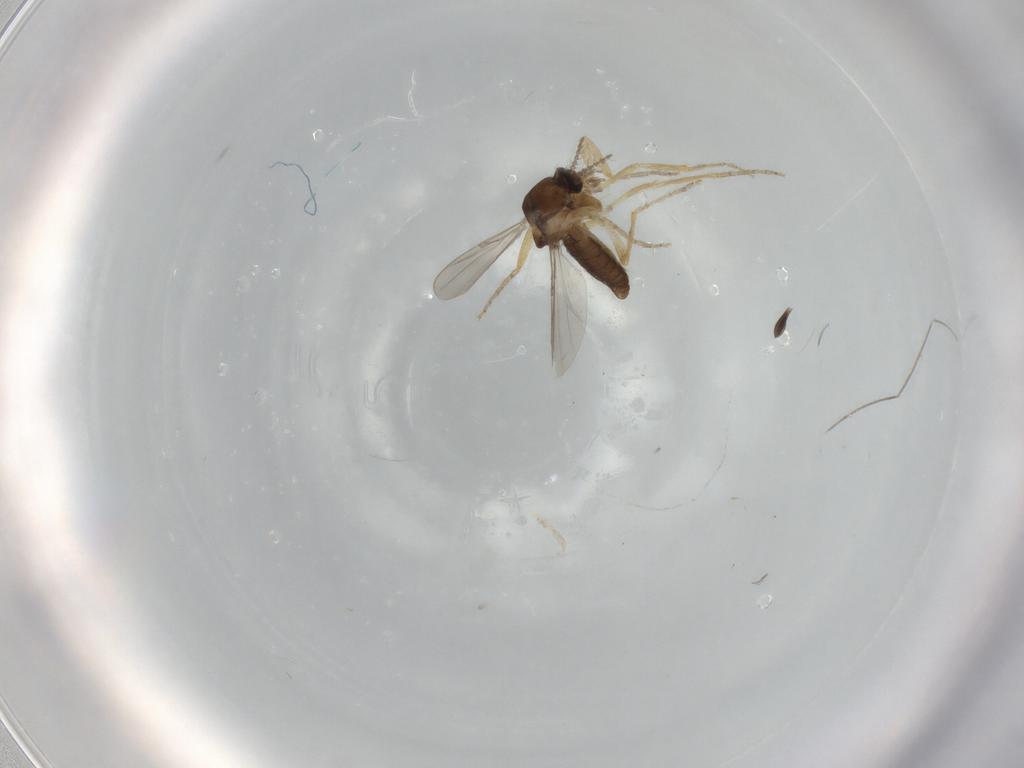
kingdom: Animalia
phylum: Arthropoda
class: Insecta
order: Diptera
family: Ceratopogonidae
